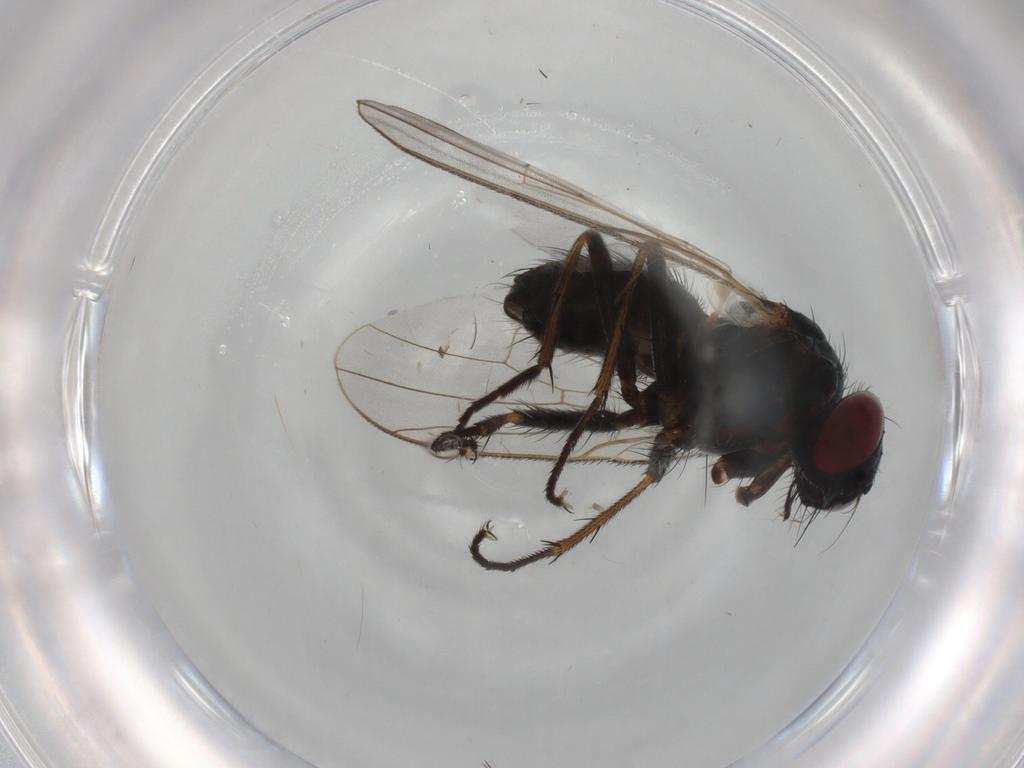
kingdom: Animalia
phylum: Arthropoda
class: Insecta
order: Diptera
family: Muscidae
